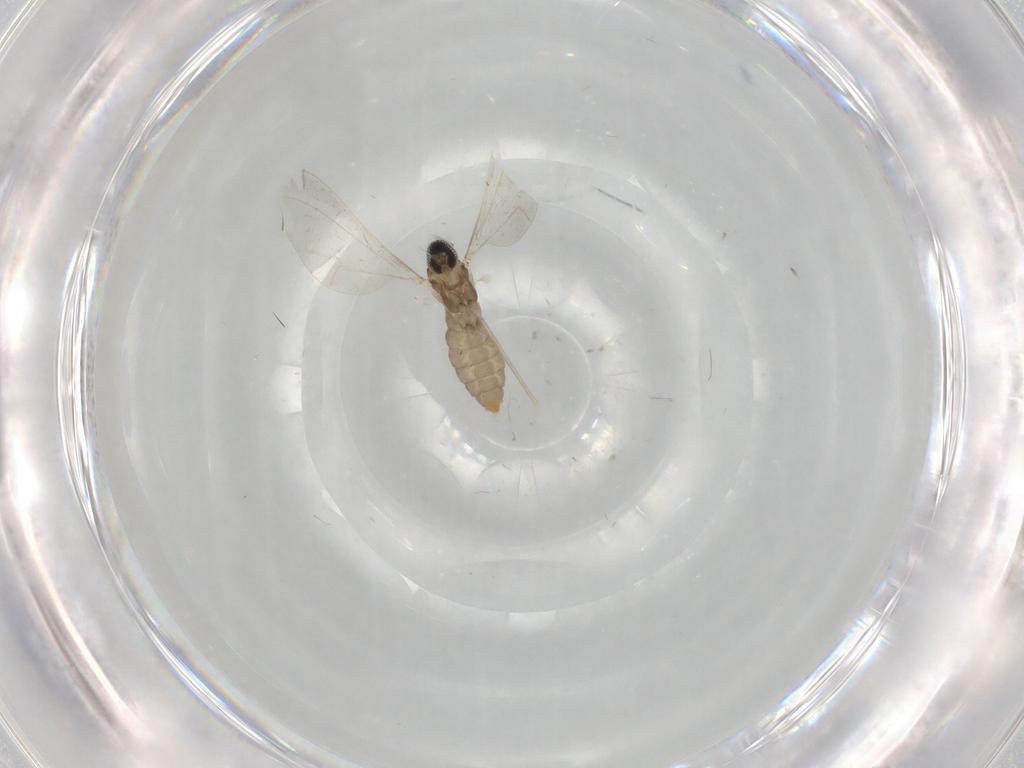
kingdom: Animalia
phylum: Arthropoda
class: Insecta
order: Diptera
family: Cecidomyiidae
